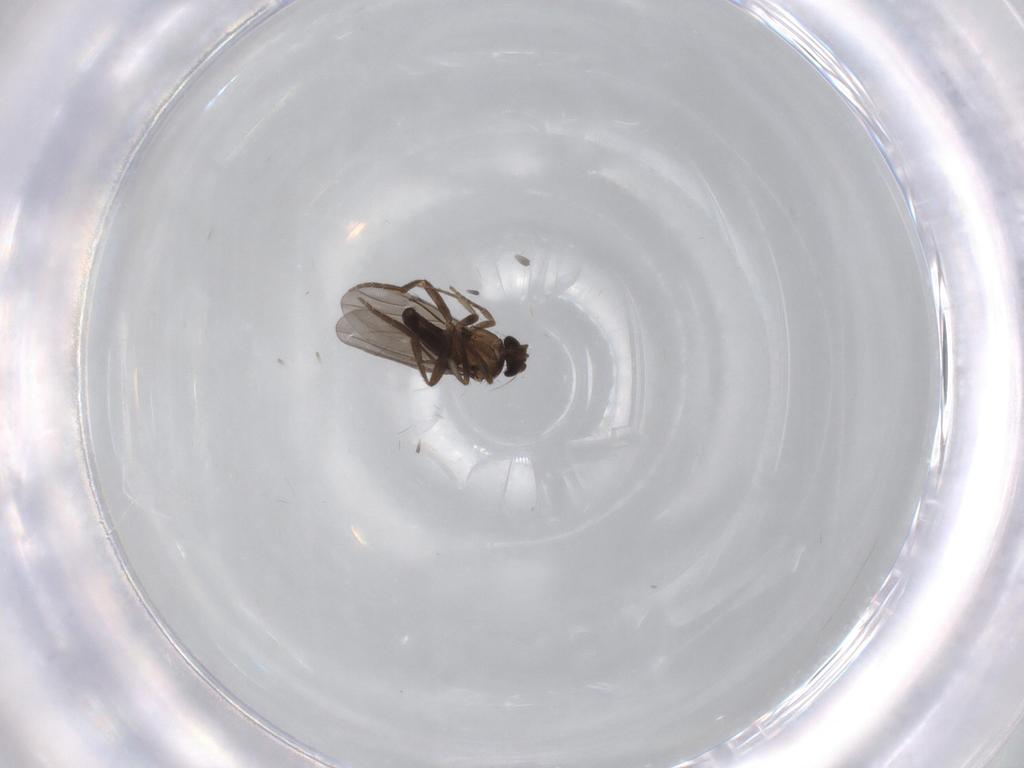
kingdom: Animalia
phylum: Arthropoda
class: Insecta
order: Diptera
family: Phoridae
